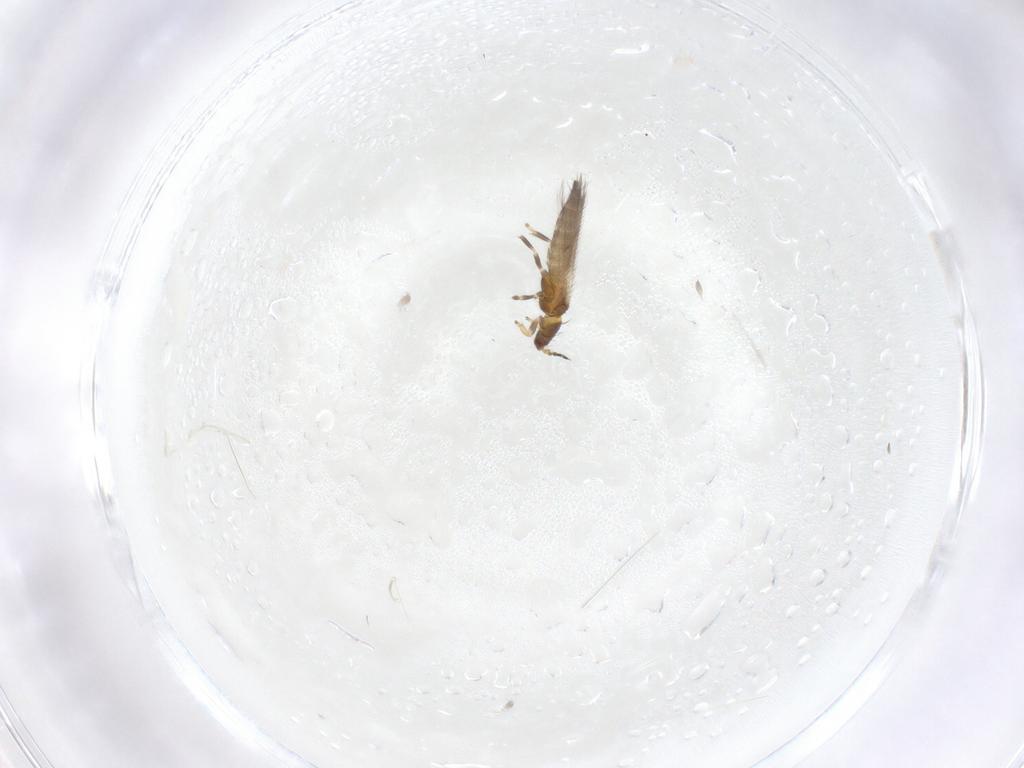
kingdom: Animalia
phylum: Arthropoda
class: Insecta
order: Thysanoptera
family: Thripidae
